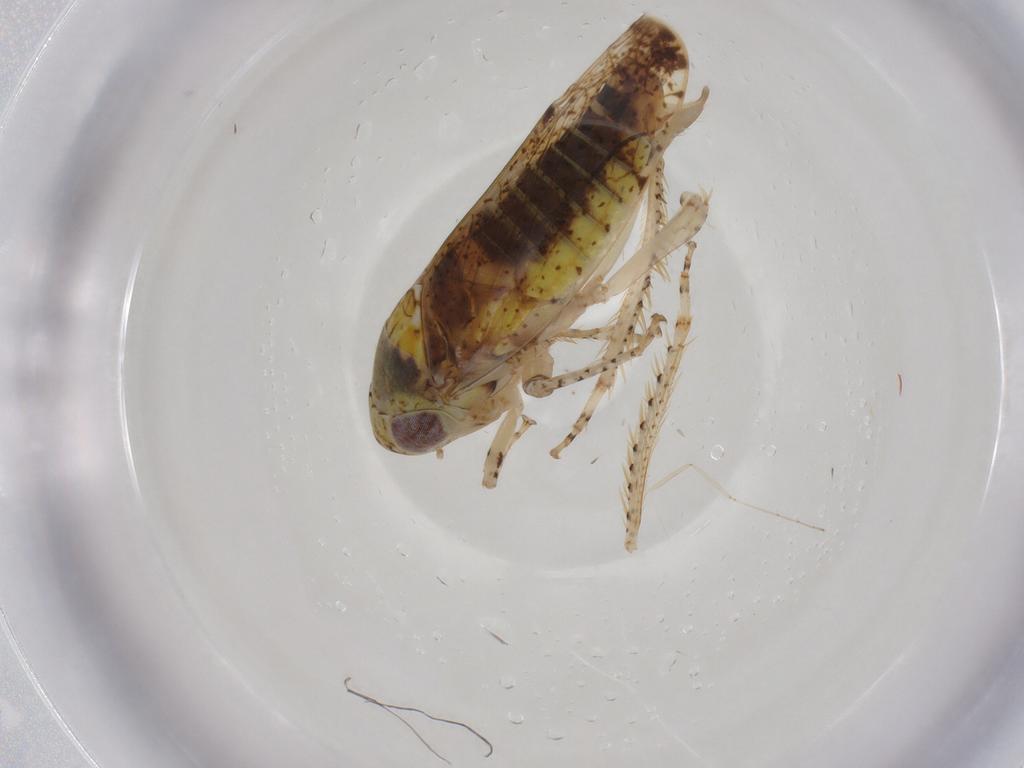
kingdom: Animalia
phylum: Arthropoda
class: Insecta
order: Hemiptera
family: Cicadellidae
